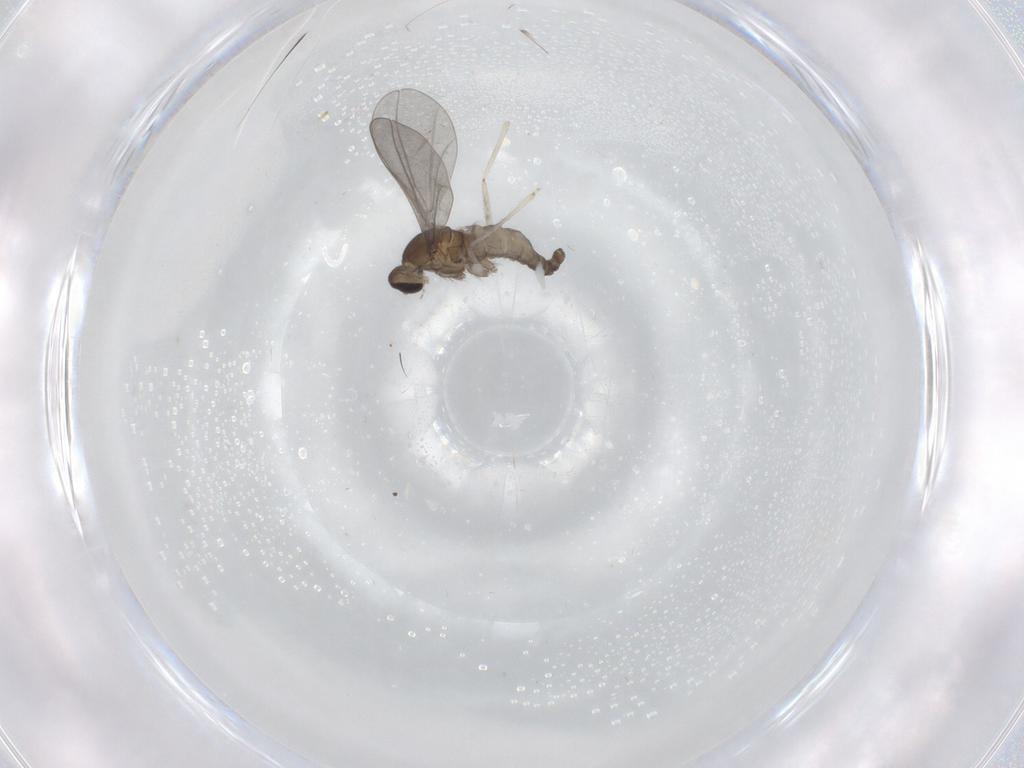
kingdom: Animalia
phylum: Arthropoda
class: Insecta
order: Diptera
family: Cecidomyiidae
